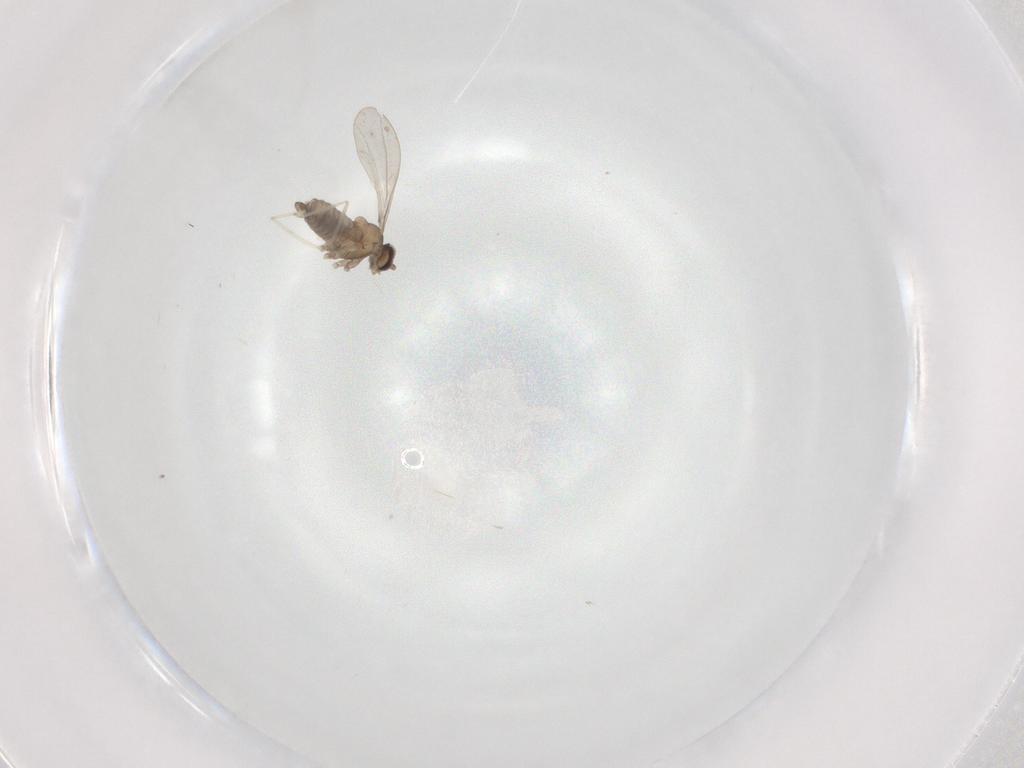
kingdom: Animalia
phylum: Arthropoda
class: Insecta
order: Diptera
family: Cecidomyiidae
